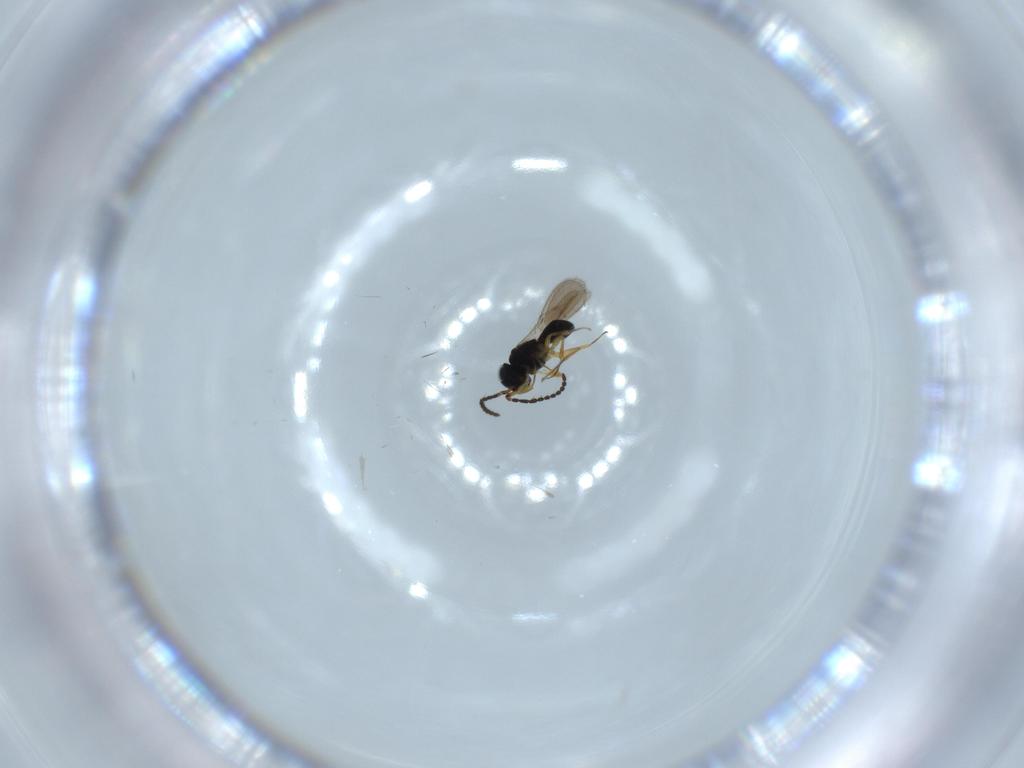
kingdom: Animalia
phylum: Arthropoda
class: Insecta
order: Hymenoptera
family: Scelionidae
